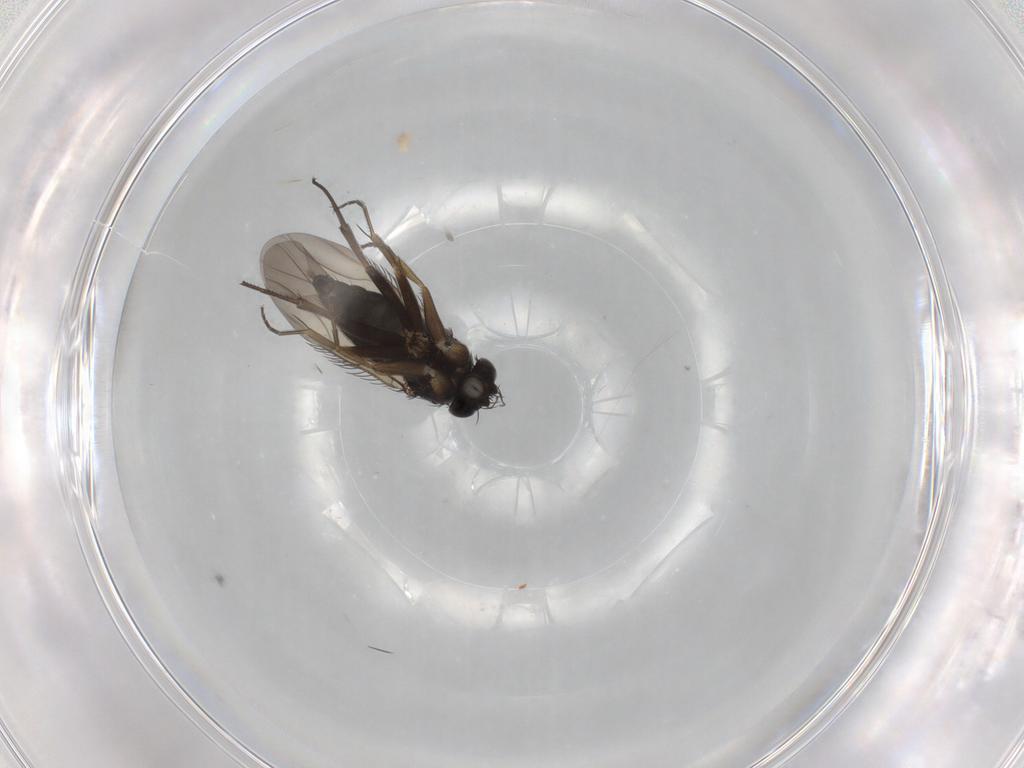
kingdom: Animalia
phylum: Arthropoda
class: Insecta
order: Diptera
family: Phoridae
